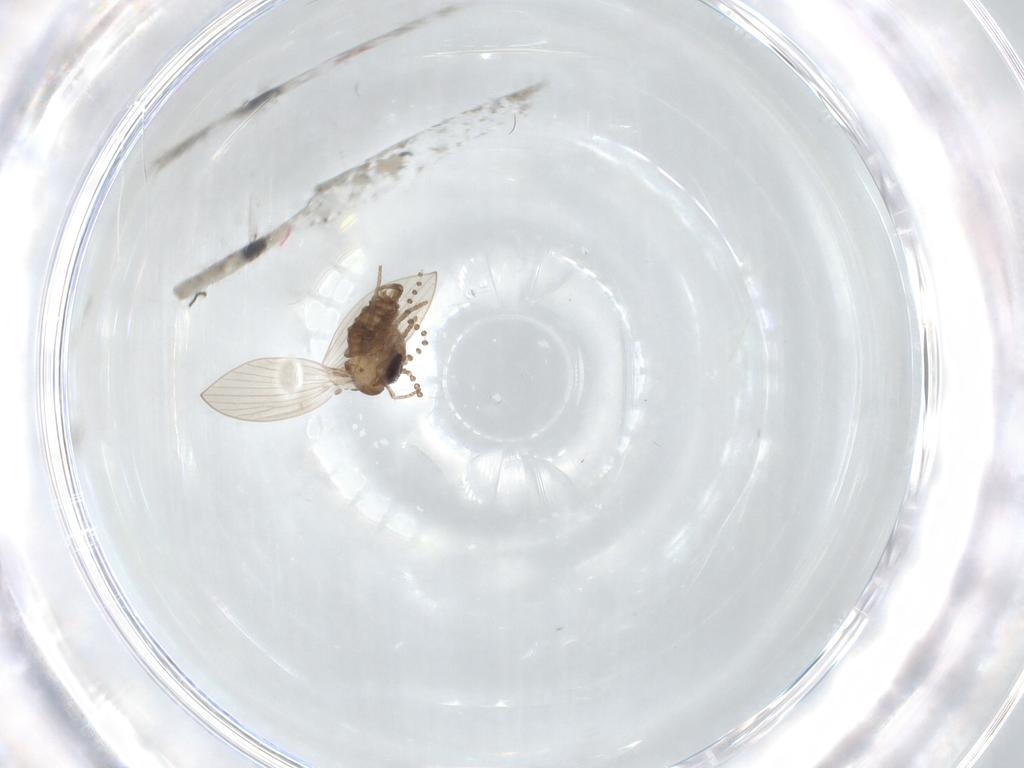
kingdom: Animalia
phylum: Arthropoda
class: Insecta
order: Diptera
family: Psychodidae
